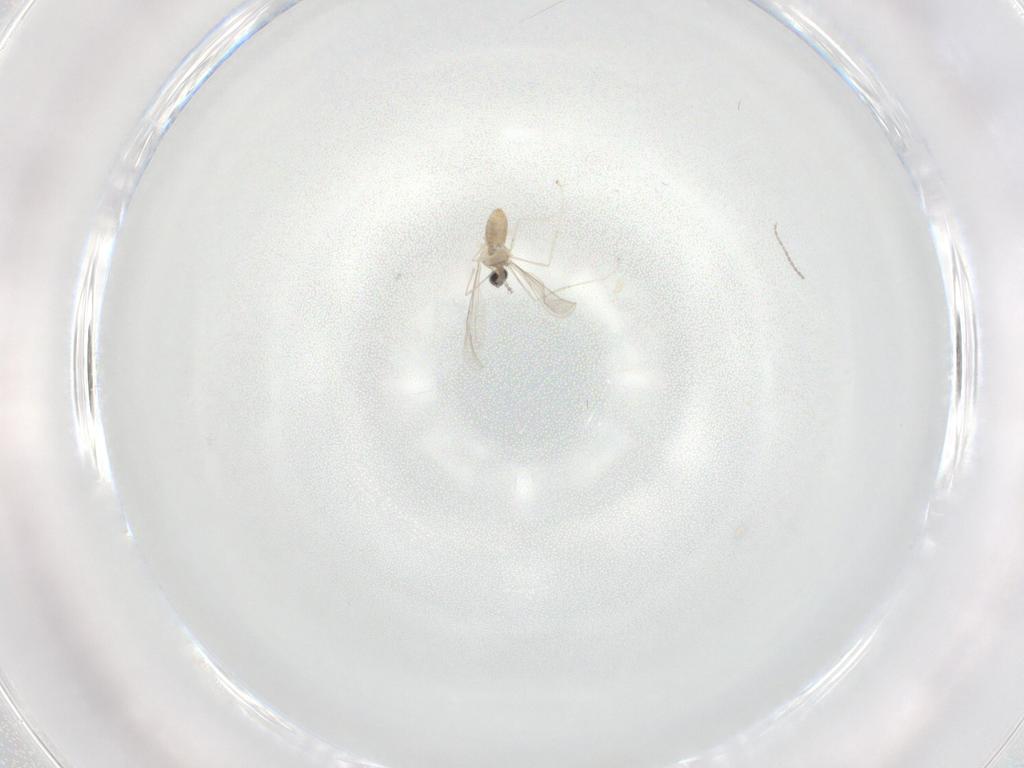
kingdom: Animalia
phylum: Arthropoda
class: Insecta
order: Diptera
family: Cecidomyiidae
